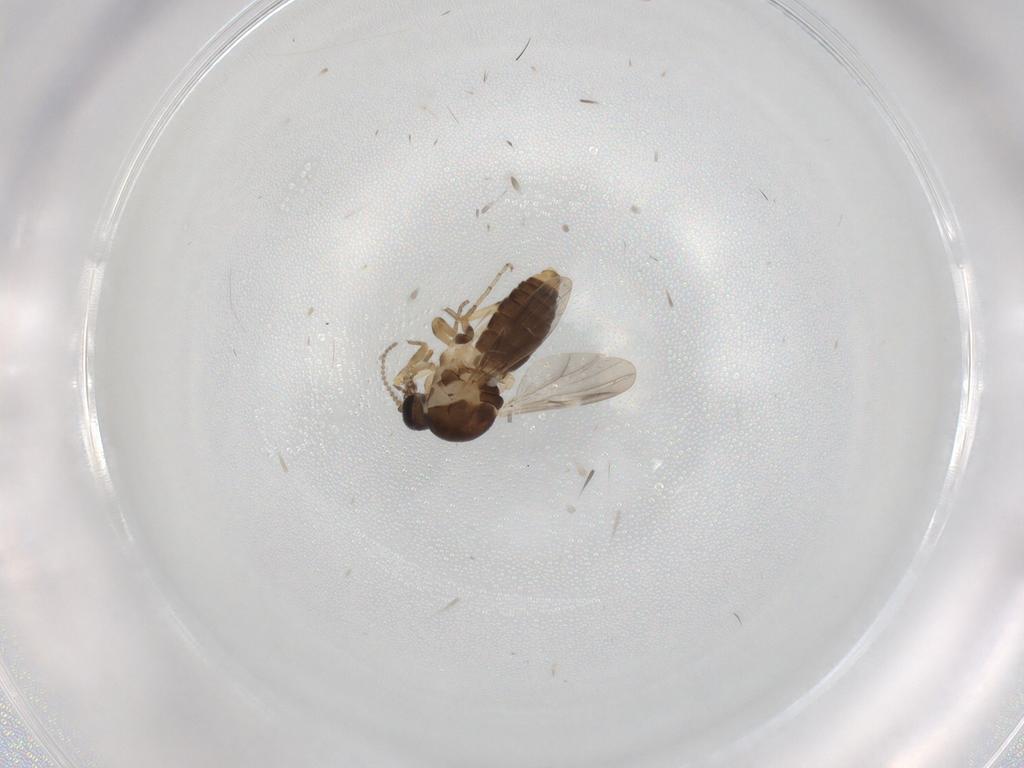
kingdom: Animalia
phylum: Arthropoda
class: Insecta
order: Diptera
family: Ceratopogonidae
